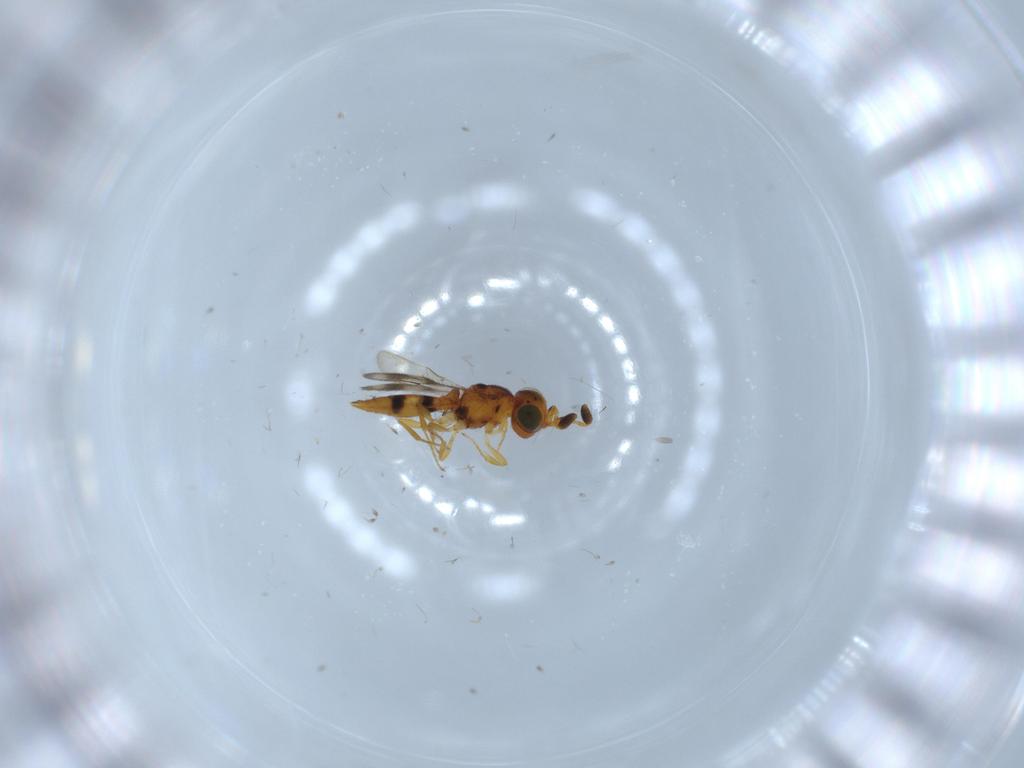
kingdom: Animalia
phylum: Arthropoda
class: Insecta
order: Hymenoptera
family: Scelionidae
